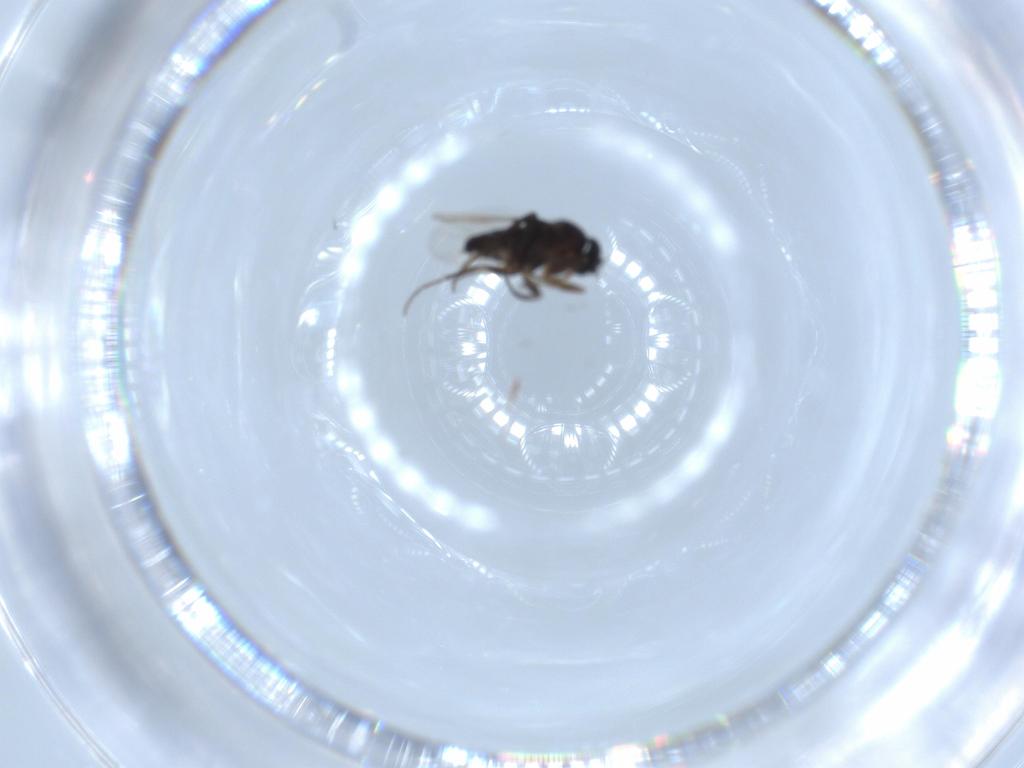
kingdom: Animalia
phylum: Arthropoda
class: Insecta
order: Diptera
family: Phoridae
